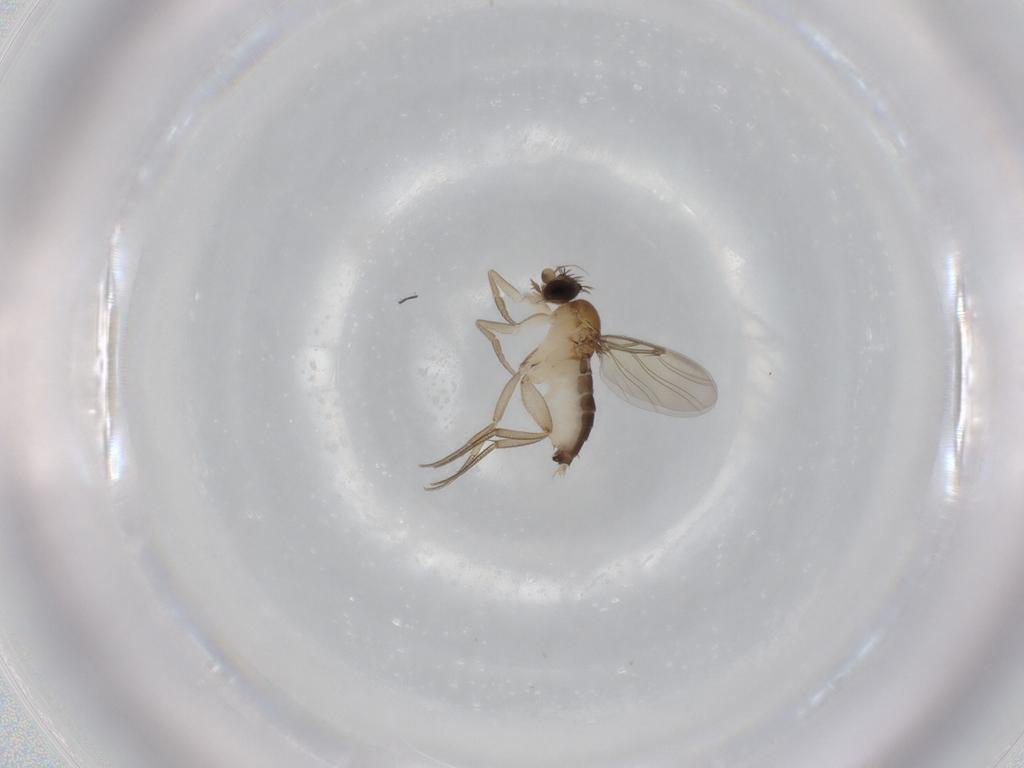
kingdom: Animalia
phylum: Arthropoda
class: Insecta
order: Diptera
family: Phoridae
